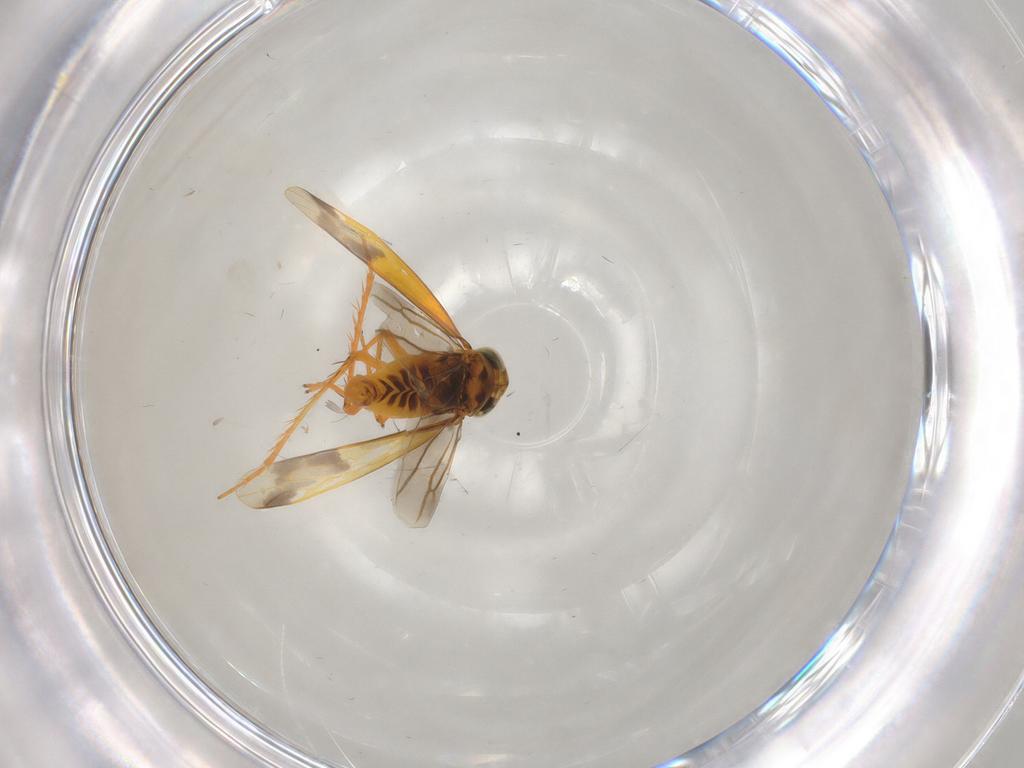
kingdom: Animalia
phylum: Arthropoda
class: Insecta
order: Hemiptera
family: Cicadellidae
